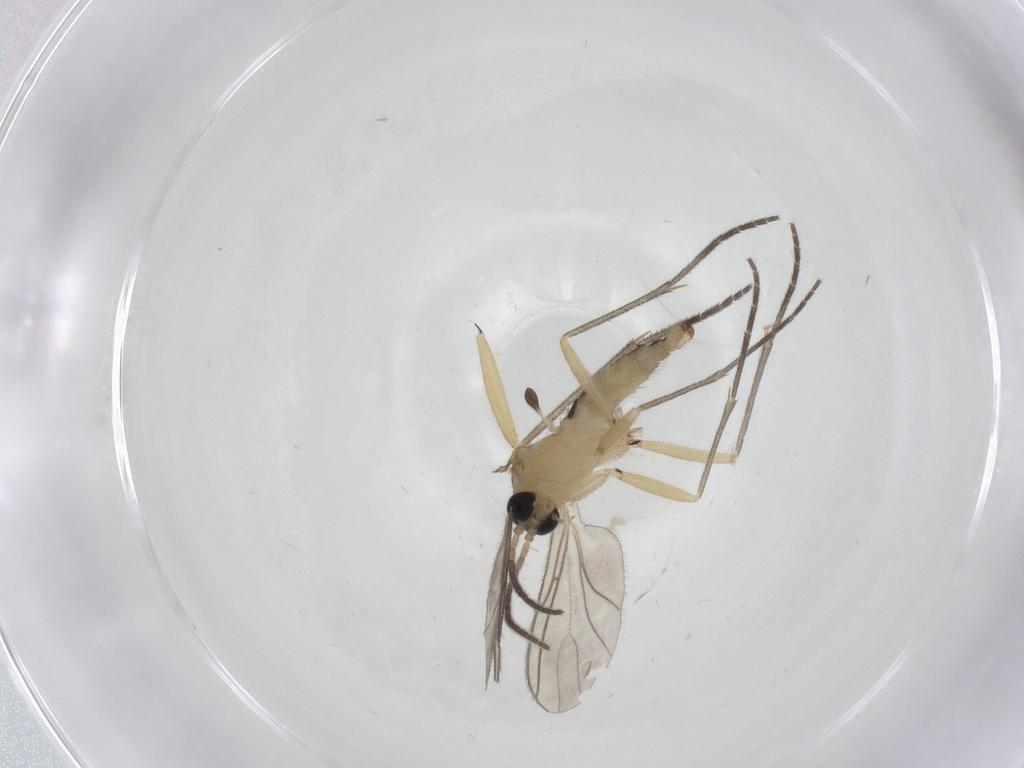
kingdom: Animalia
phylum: Arthropoda
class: Insecta
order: Diptera
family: Sciaridae
